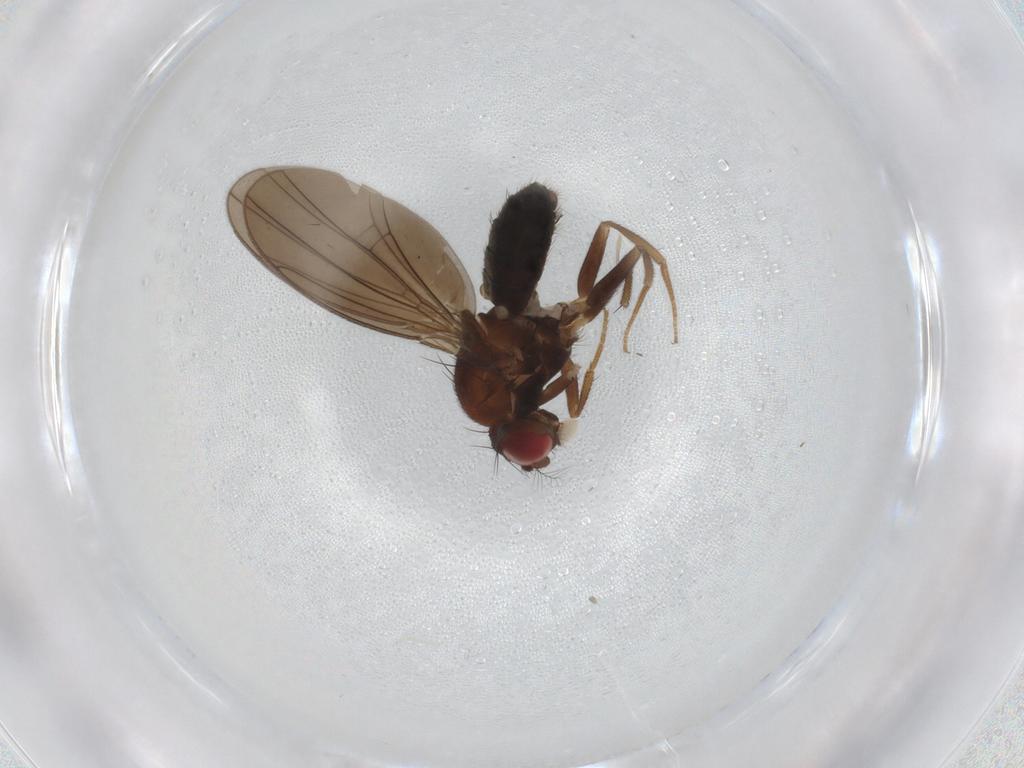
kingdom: Animalia
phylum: Arthropoda
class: Insecta
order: Diptera
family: Drosophilidae
